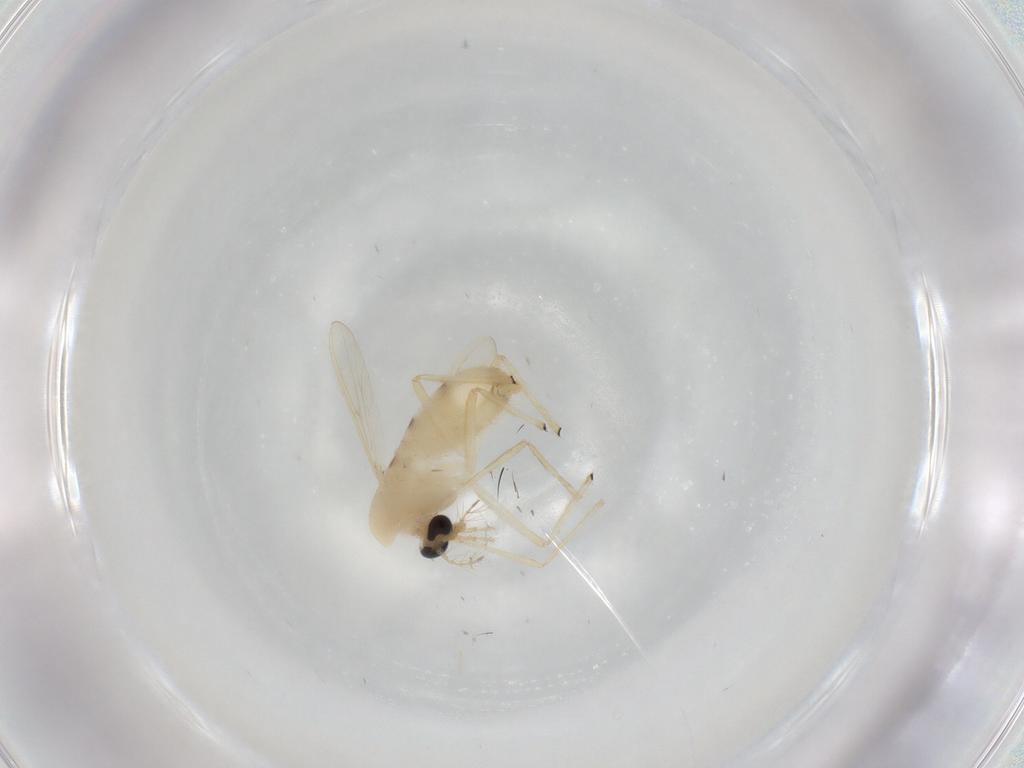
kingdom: Animalia
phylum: Arthropoda
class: Insecta
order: Diptera
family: Chironomidae
